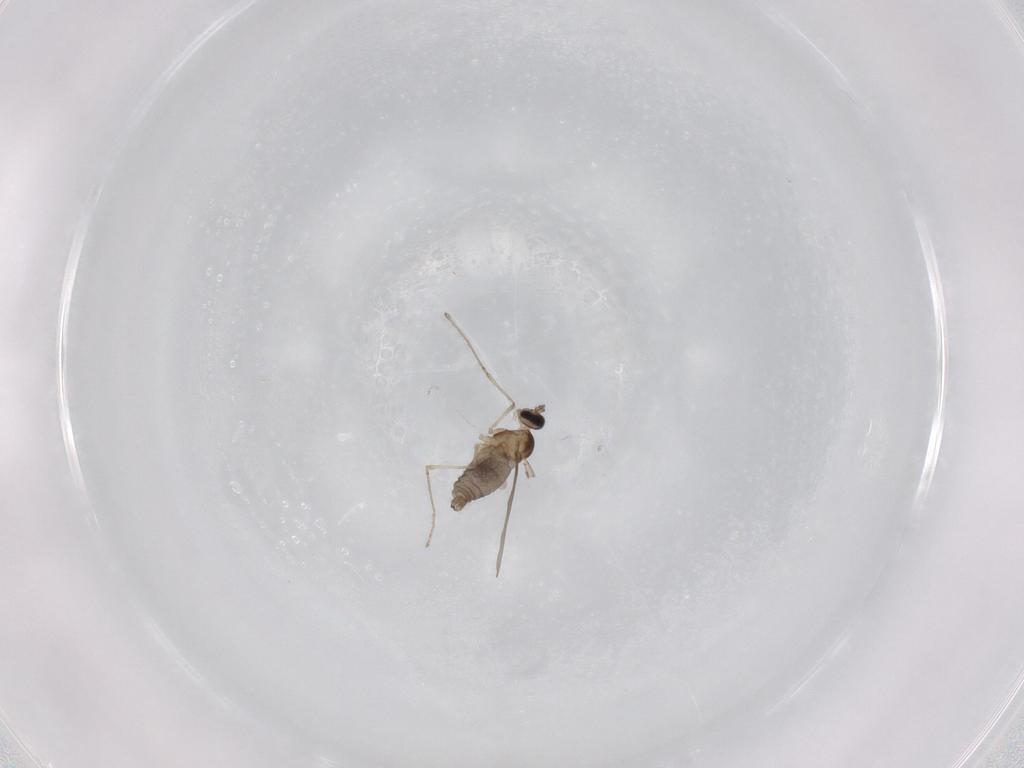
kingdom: Animalia
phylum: Arthropoda
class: Insecta
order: Diptera
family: Cecidomyiidae
